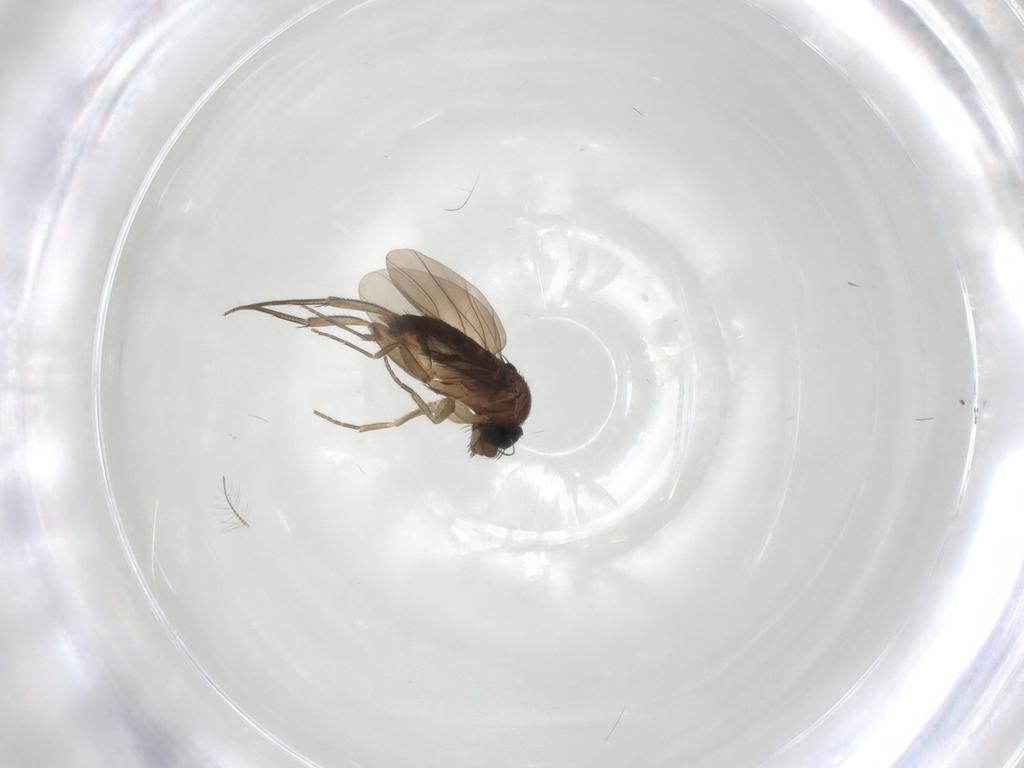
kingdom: Animalia
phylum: Arthropoda
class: Insecta
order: Diptera
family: Phoridae
